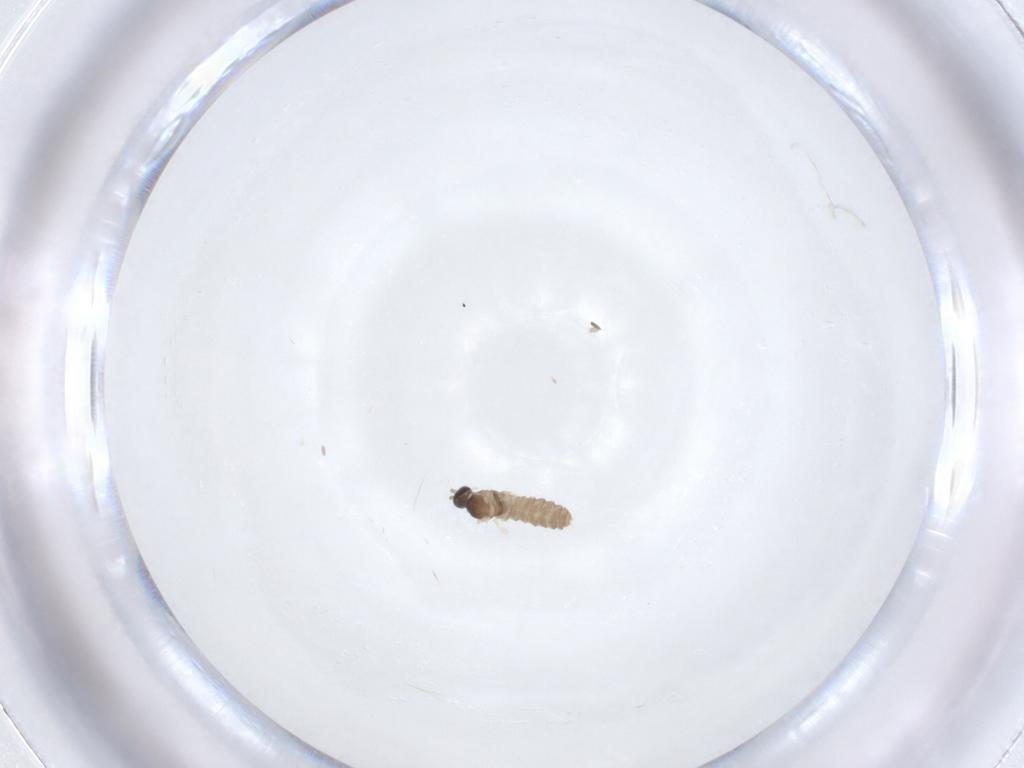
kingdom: Animalia
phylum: Arthropoda
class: Insecta
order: Diptera
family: Cecidomyiidae
